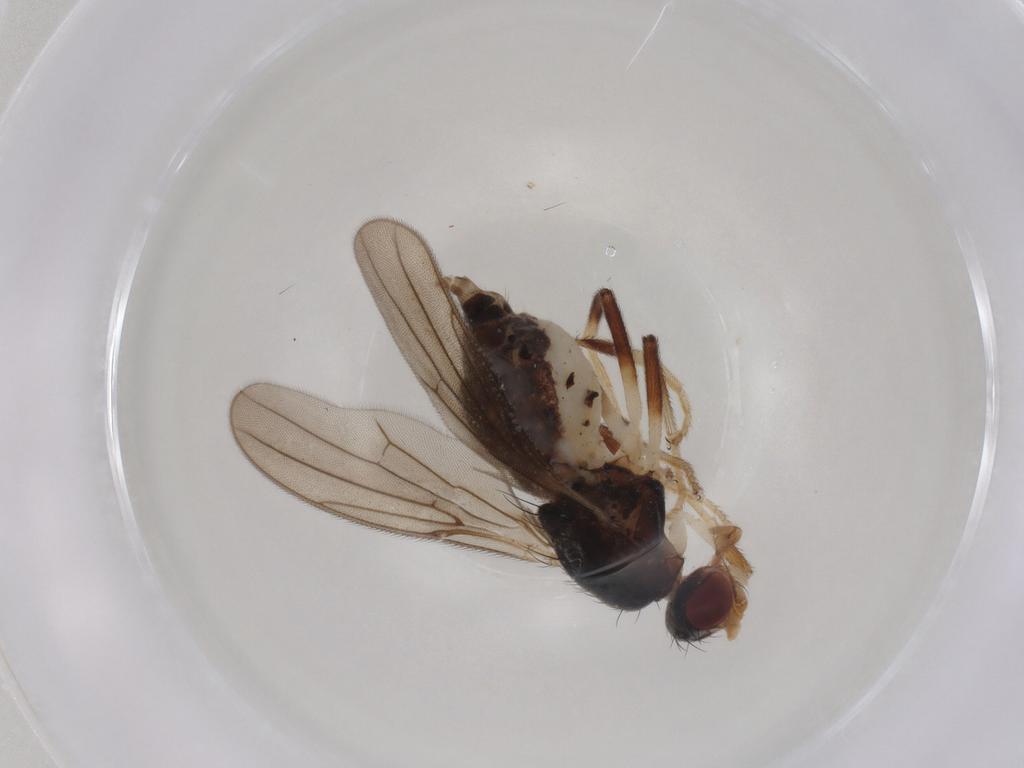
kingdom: Animalia
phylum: Arthropoda
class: Insecta
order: Diptera
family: Chloropidae
